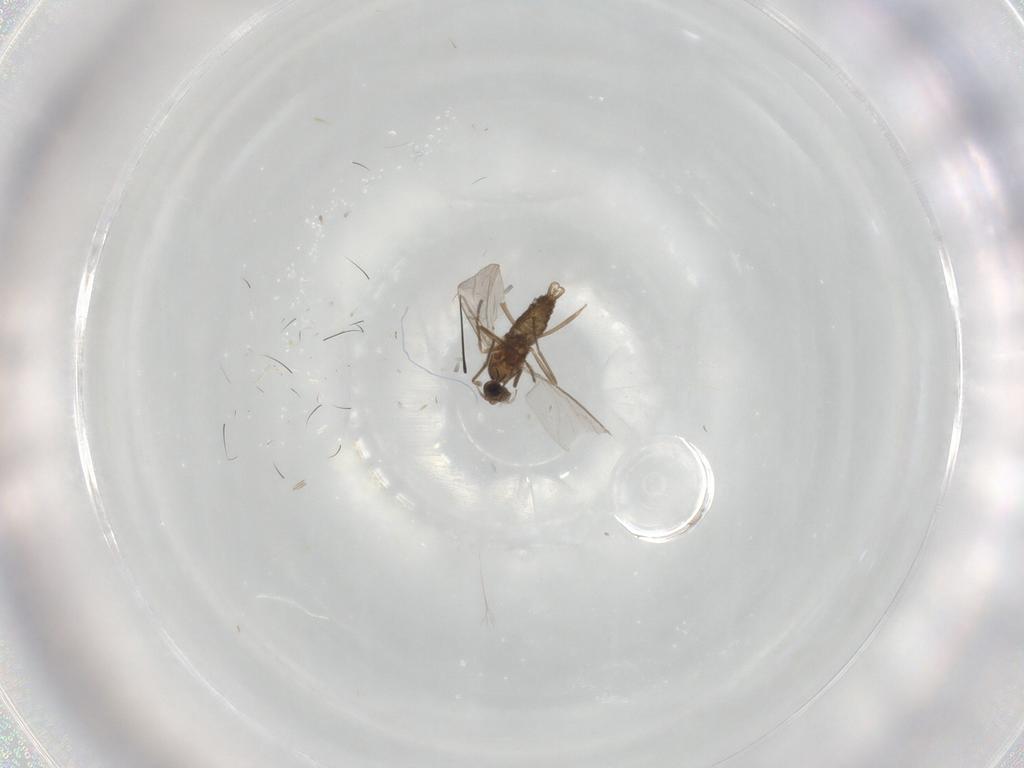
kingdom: Animalia
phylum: Arthropoda
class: Insecta
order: Diptera
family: Cecidomyiidae
